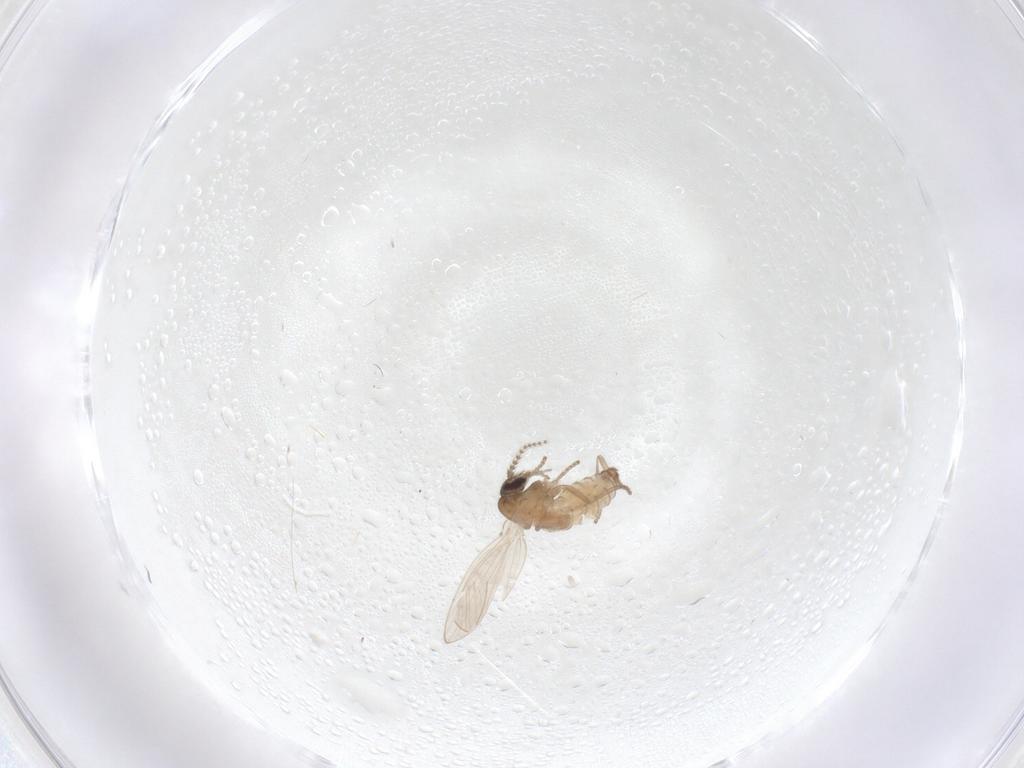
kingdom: Animalia
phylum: Arthropoda
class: Insecta
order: Diptera
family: Psychodidae
